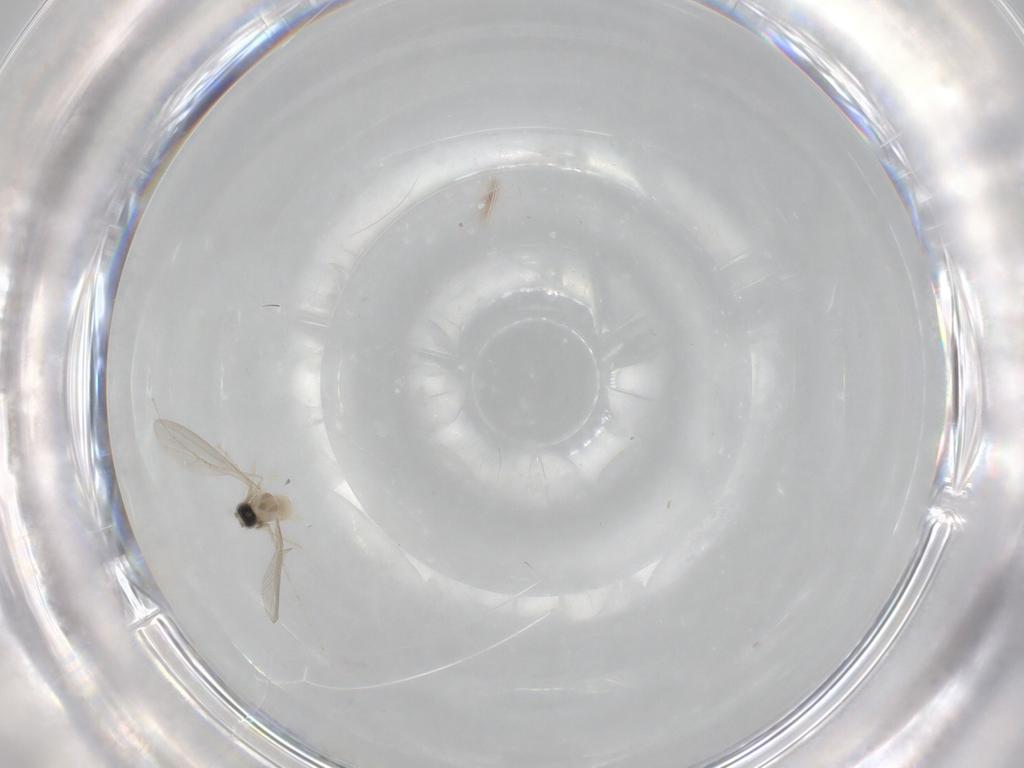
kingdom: Animalia
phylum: Arthropoda
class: Insecta
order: Diptera
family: Cecidomyiidae
